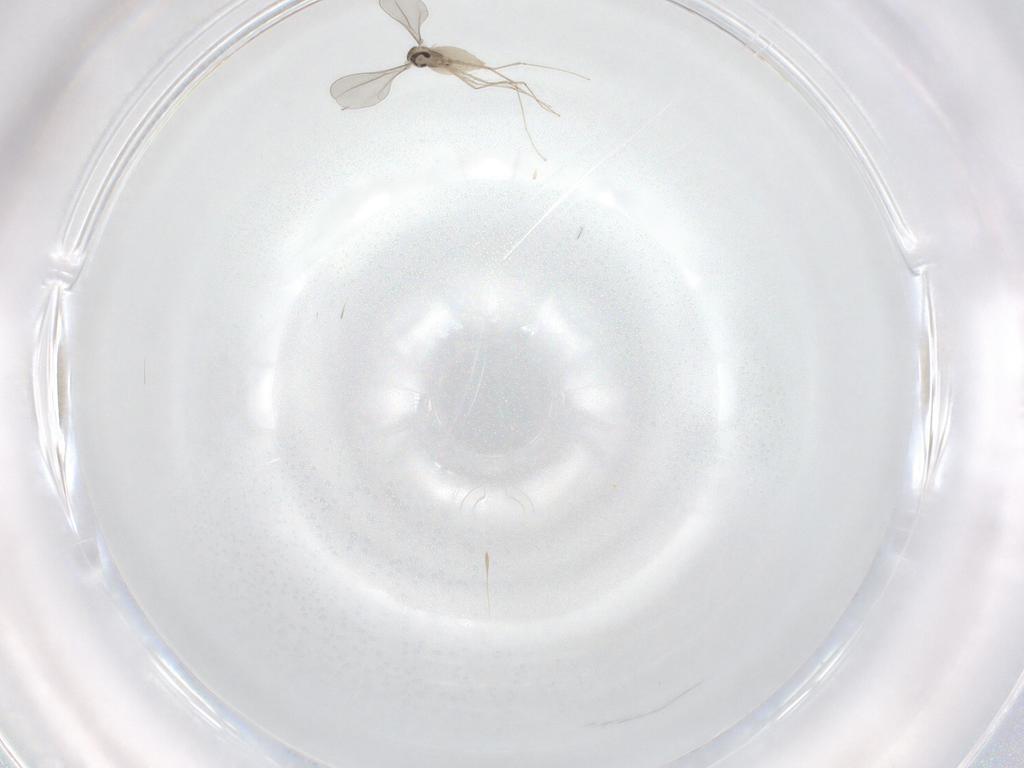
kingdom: Animalia
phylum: Arthropoda
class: Insecta
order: Diptera
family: Cecidomyiidae
